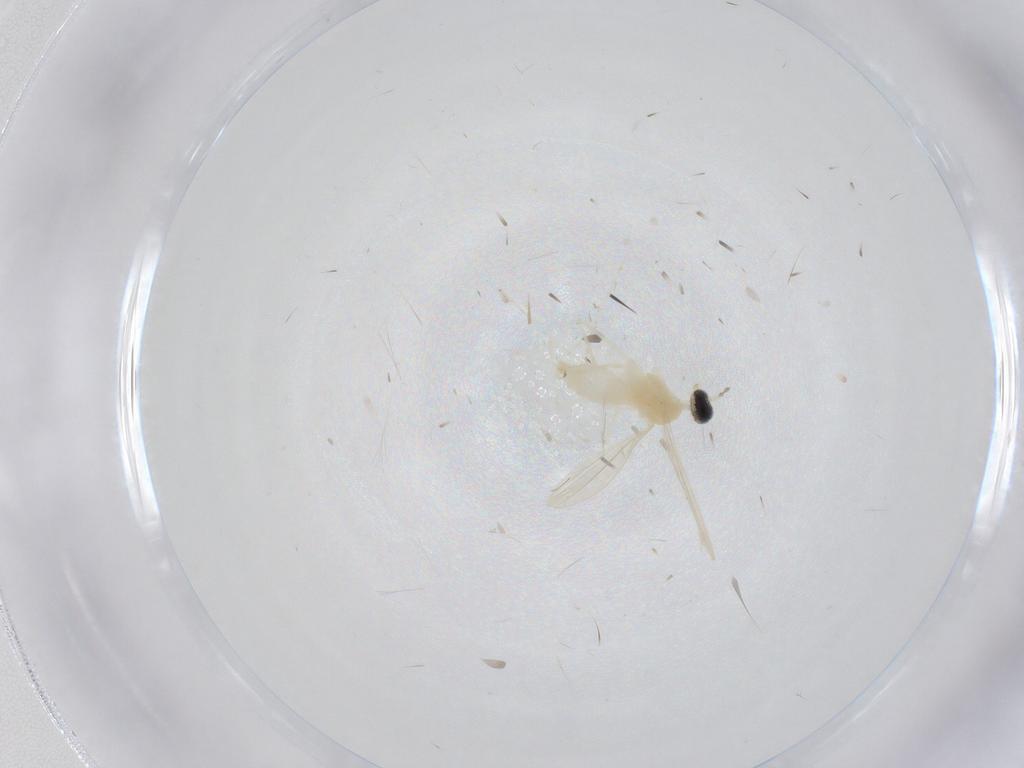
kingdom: Animalia
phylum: Arthropoda
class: Insecta
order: Diptera
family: Cecidomyiidae
